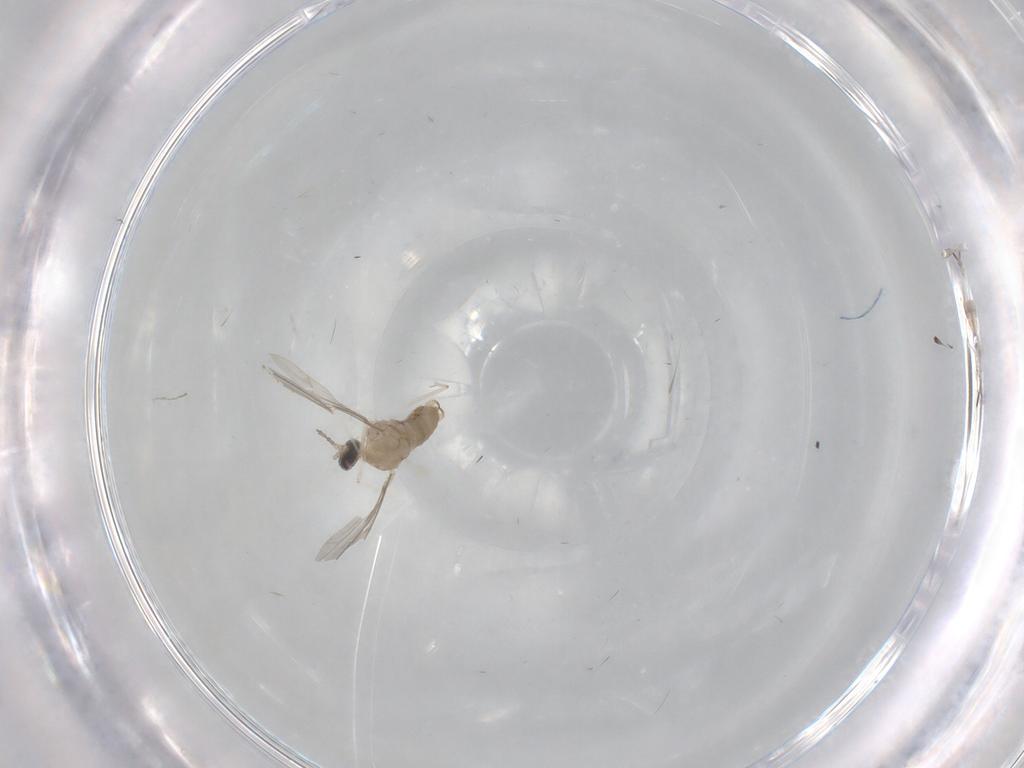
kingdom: Animalia
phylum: Arthropoda
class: Insecta
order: Diptera
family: Cecidomyiidae
